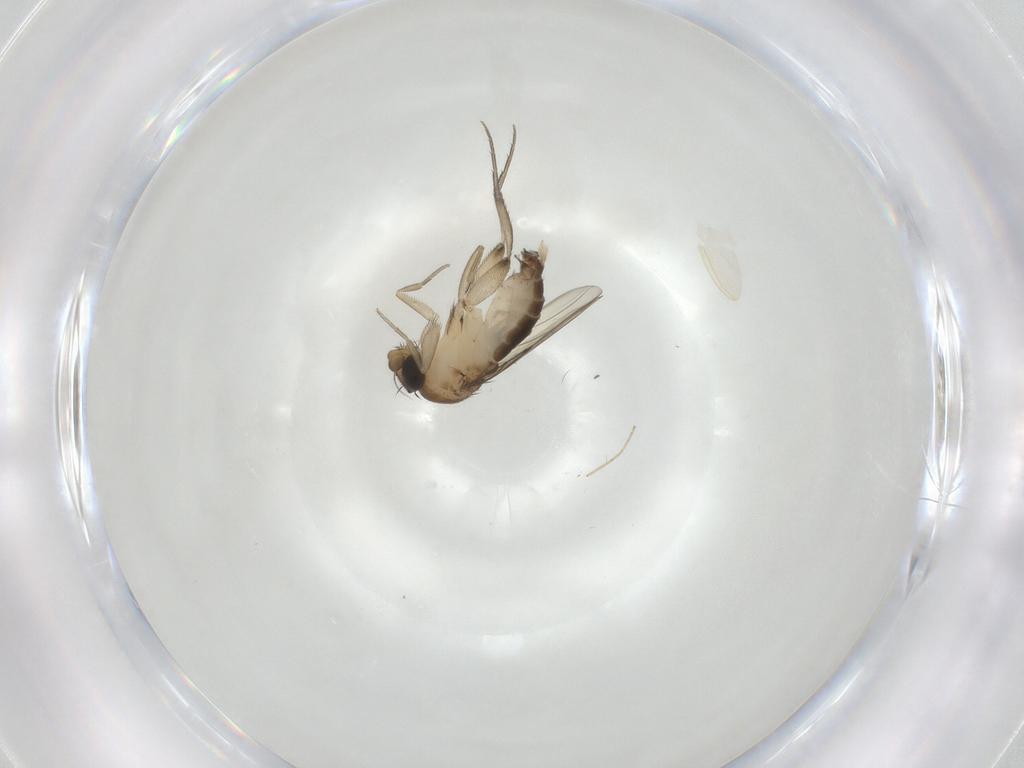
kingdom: Animalia
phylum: Arthropoda
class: Insecta
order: Diptera
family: Phoridae
